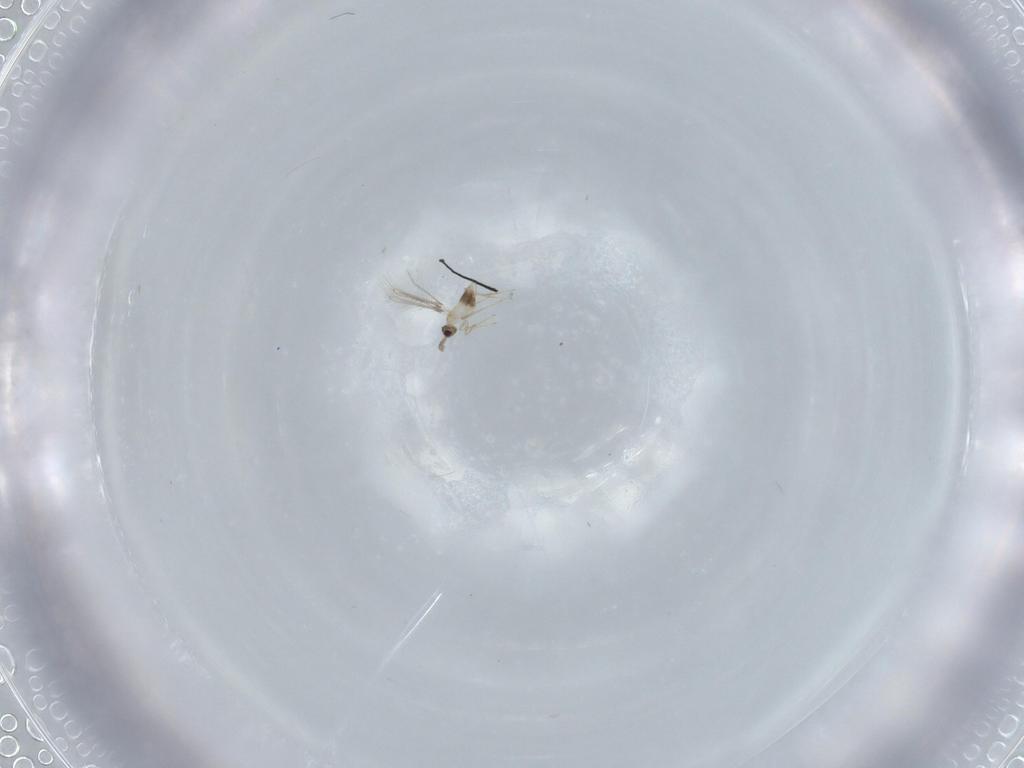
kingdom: Animalia
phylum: Arthropoda
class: Insecta
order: Hymenoptera
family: Mymaridae
